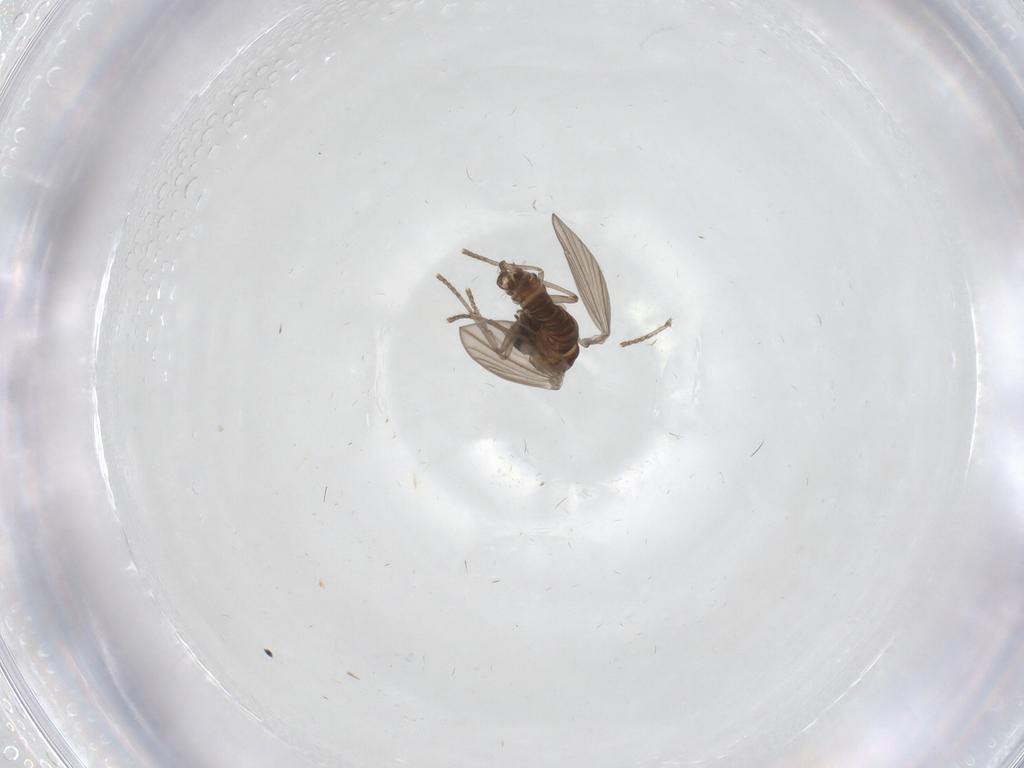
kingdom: Animalia
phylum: Arthropoda
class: Insecta
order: Diptera
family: Psychodidae
